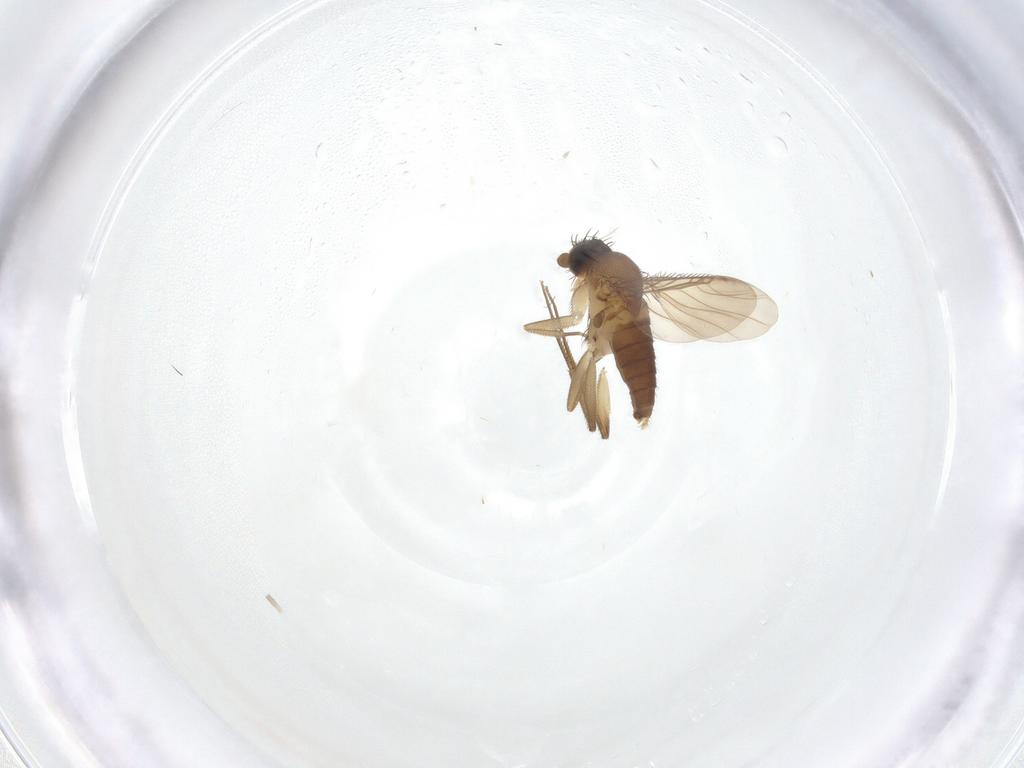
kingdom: Animalia
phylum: Arthropoda
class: Insecta
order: Diptera
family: Phoridae
